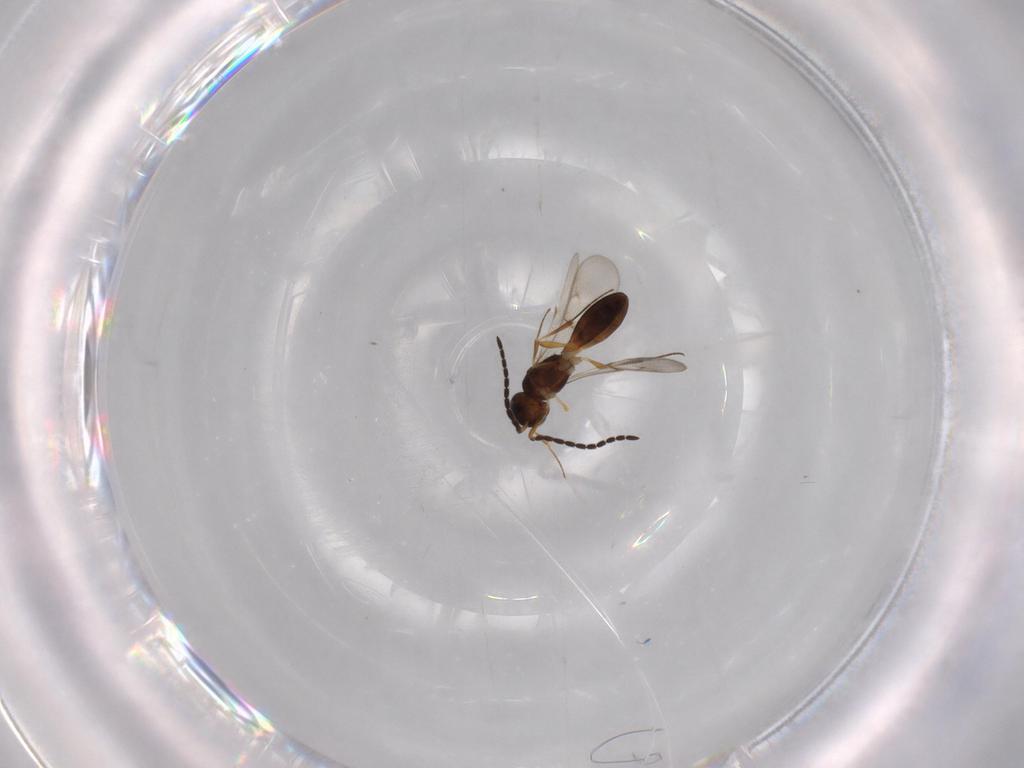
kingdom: Animalia
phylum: Arthropoda
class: Insecta
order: Hymenoptera
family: Scelionidae
